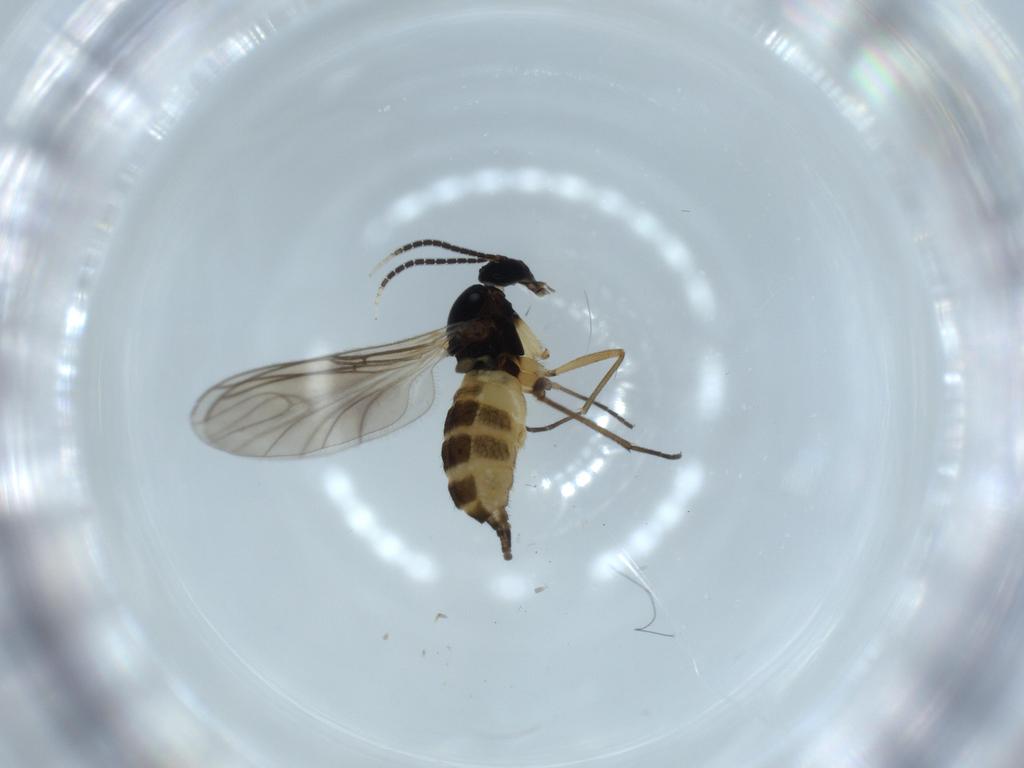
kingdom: Animalia
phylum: Arthropoda
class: Insecta
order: Diptera
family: Sciaridae
